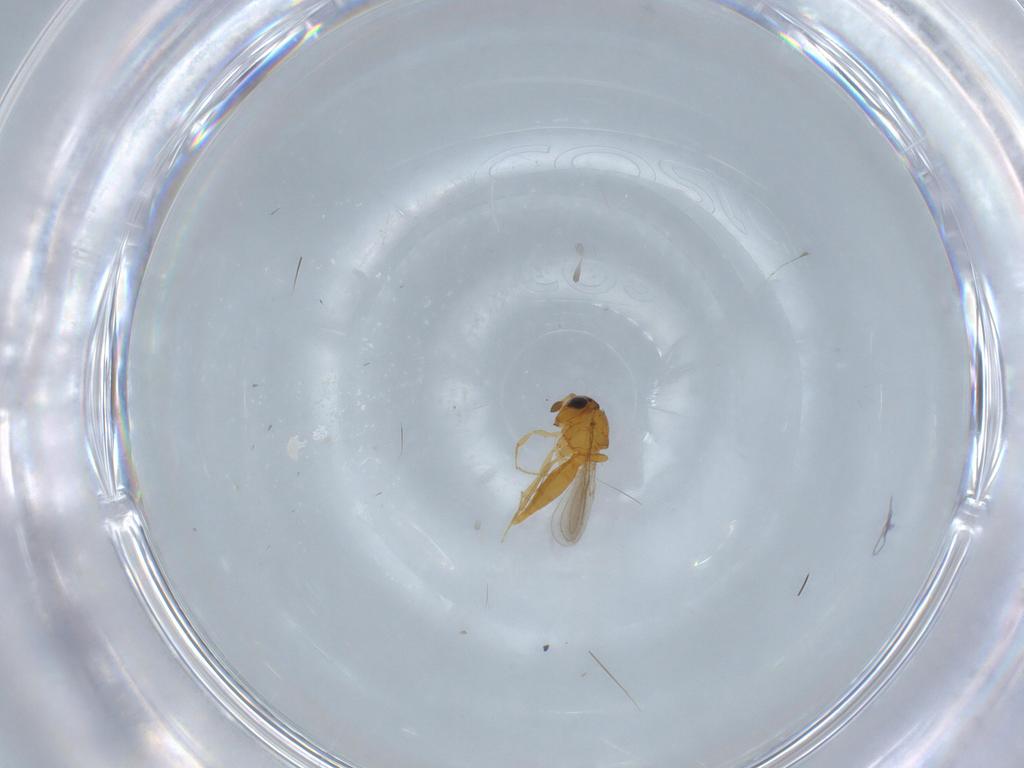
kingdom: Animalia
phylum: Arthropoda
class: Insecta
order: Hymenoptera
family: Scelionidae
